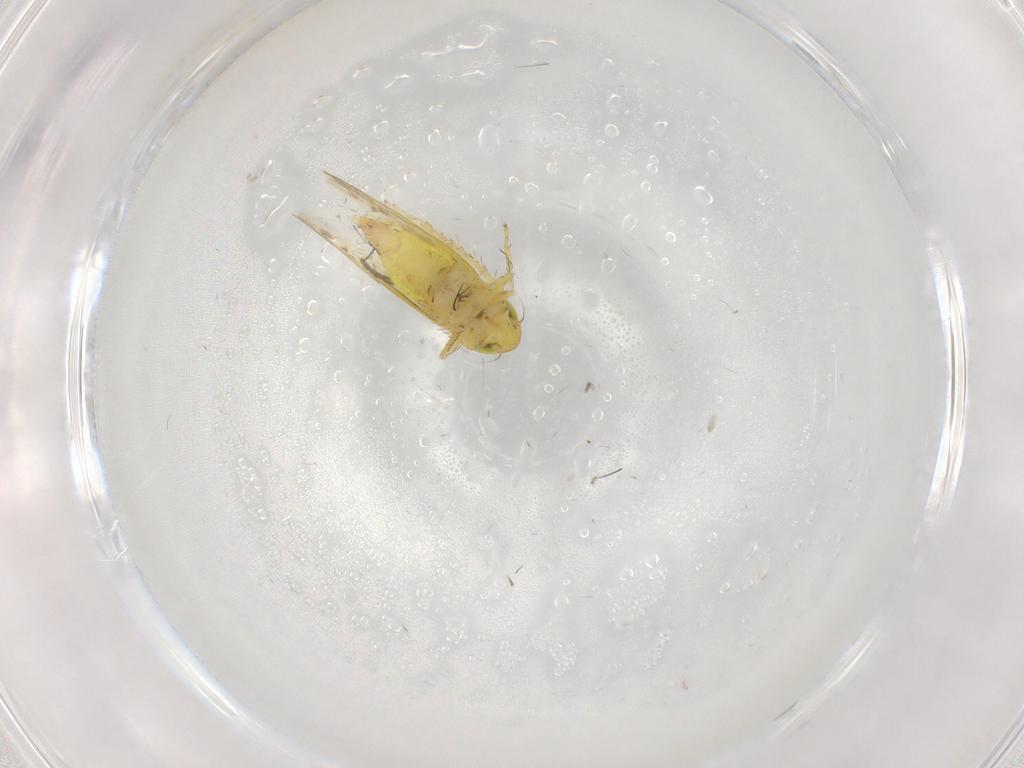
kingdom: Animalia
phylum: Arthropoda
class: Insecta
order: Hemiptera
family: Cicadellidae
